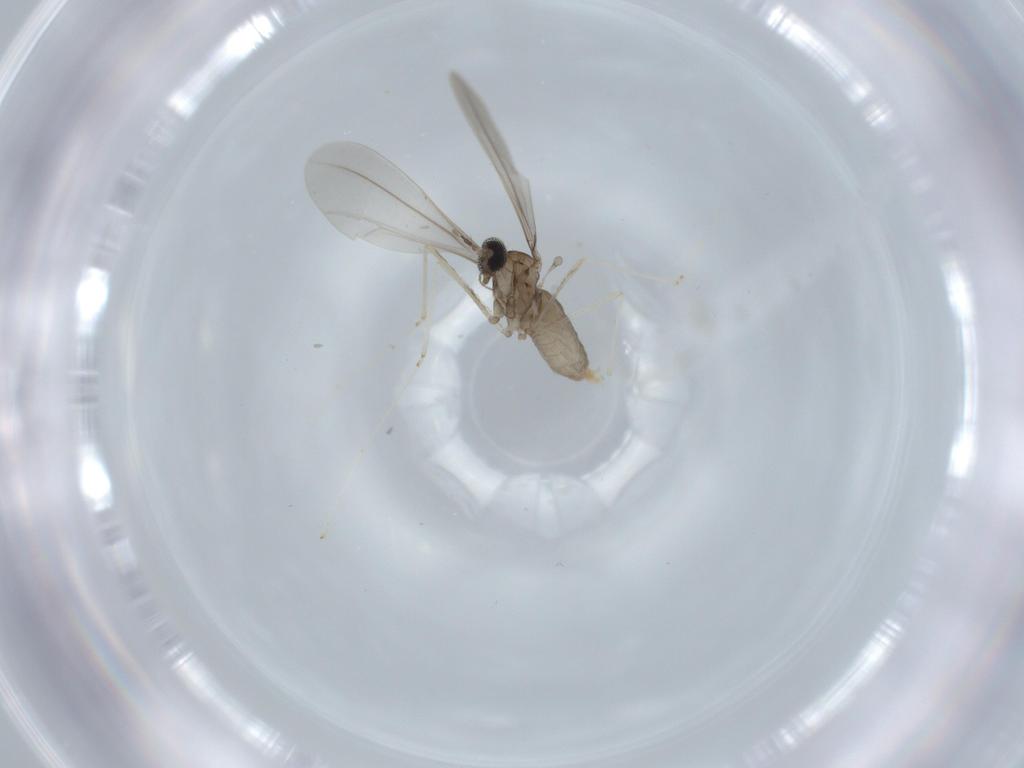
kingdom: Animalia
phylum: Arthropoda
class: Insecta
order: Diptera
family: Cecidomyiidae
